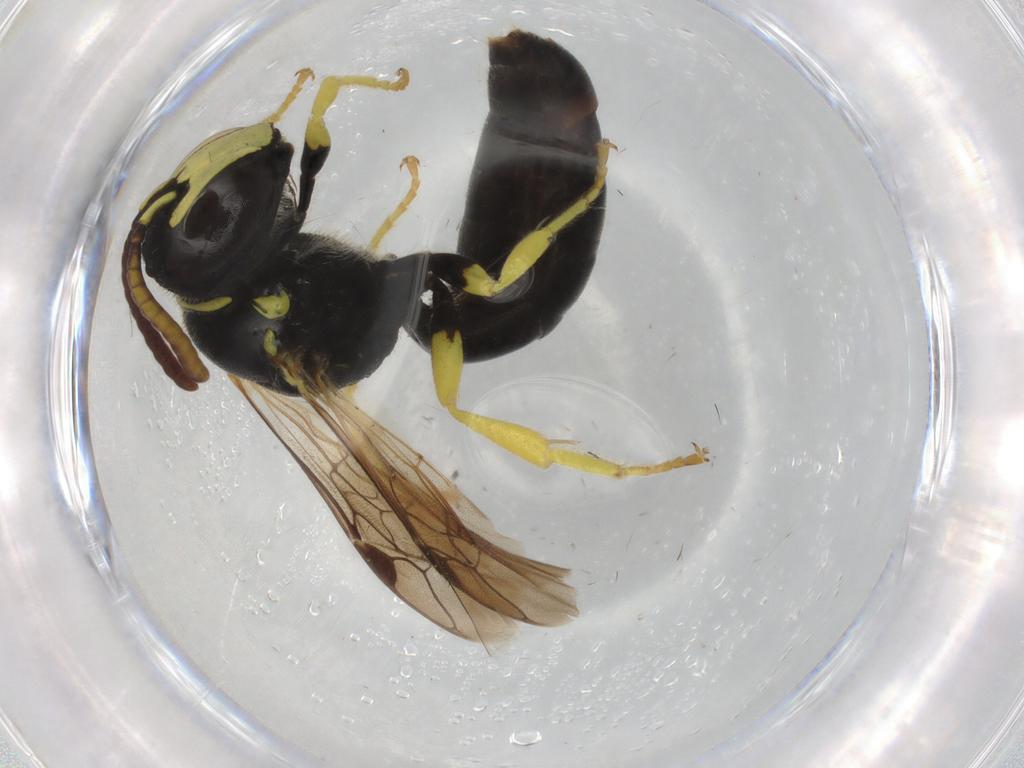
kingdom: Animalia
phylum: Arthropoda
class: Insecta
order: Hymenoptera
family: Colletidae
